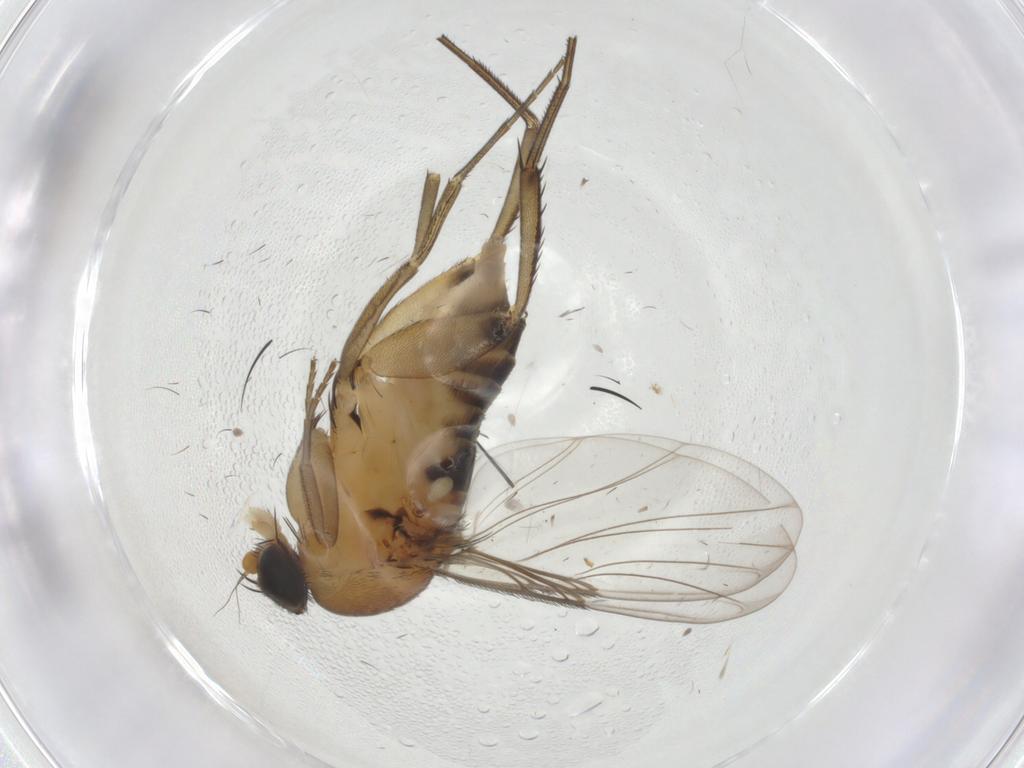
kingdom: Animalia
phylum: Arthropoda
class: Insecta
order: Diptera
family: Phoridae
